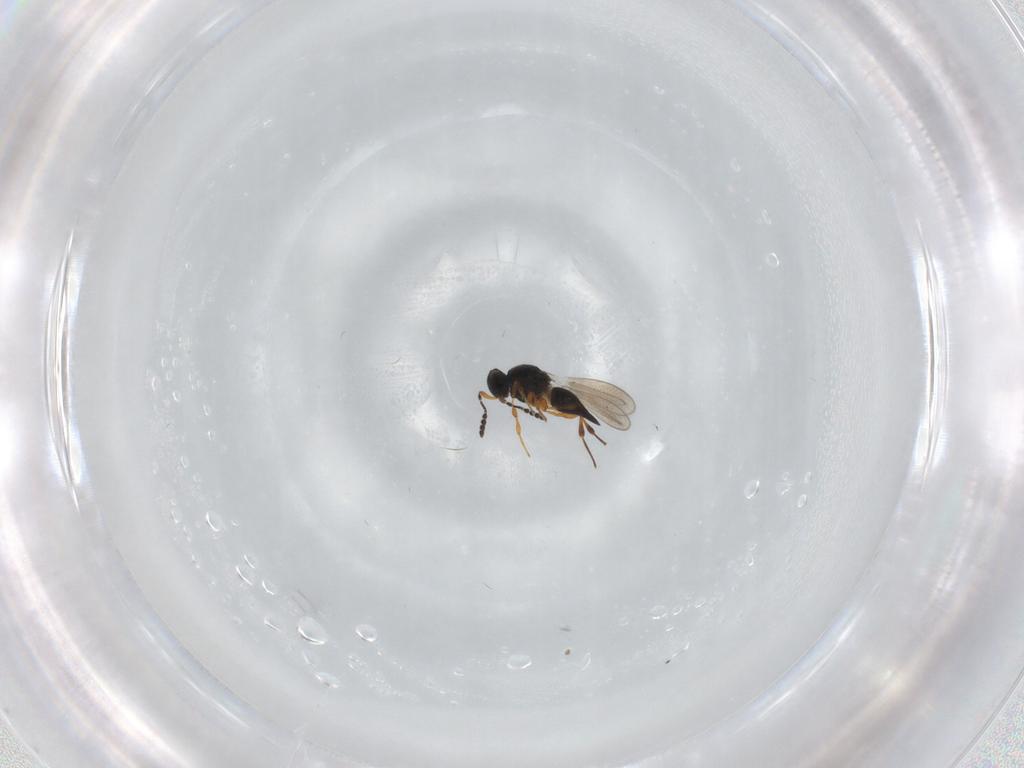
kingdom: Animalia
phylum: Arthropoda
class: Insecta
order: Hymenoptera
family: Platygastridae
